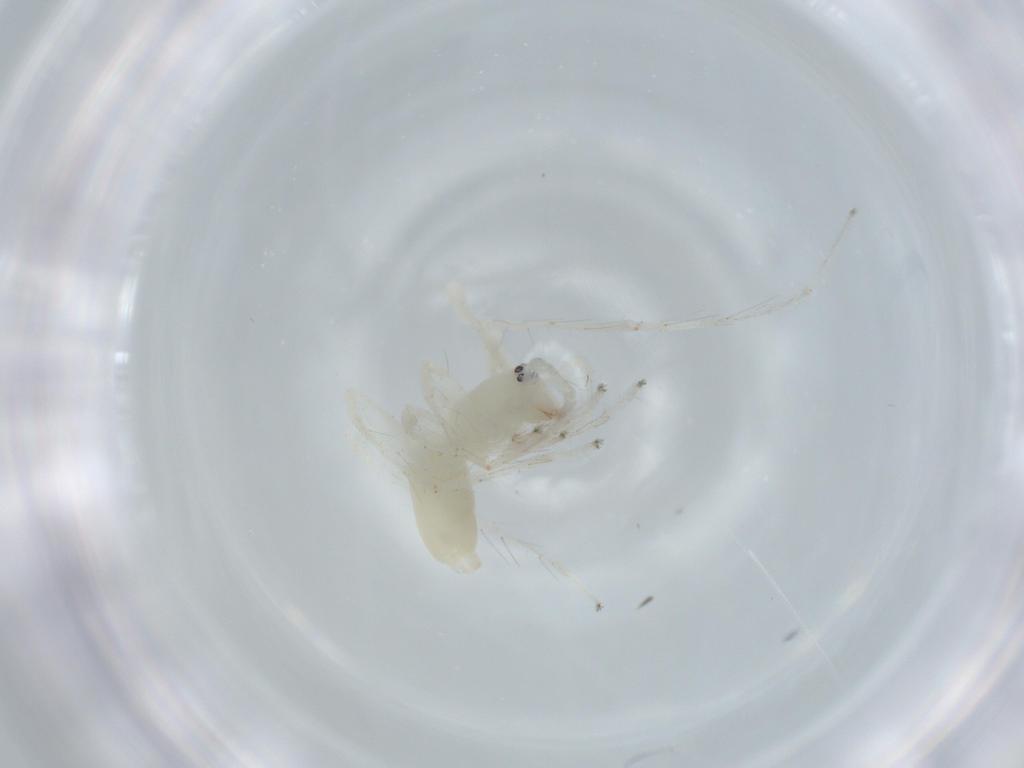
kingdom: Animalia
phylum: Arthropoda
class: Arachnida
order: Araneae
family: Anyphaenidae
